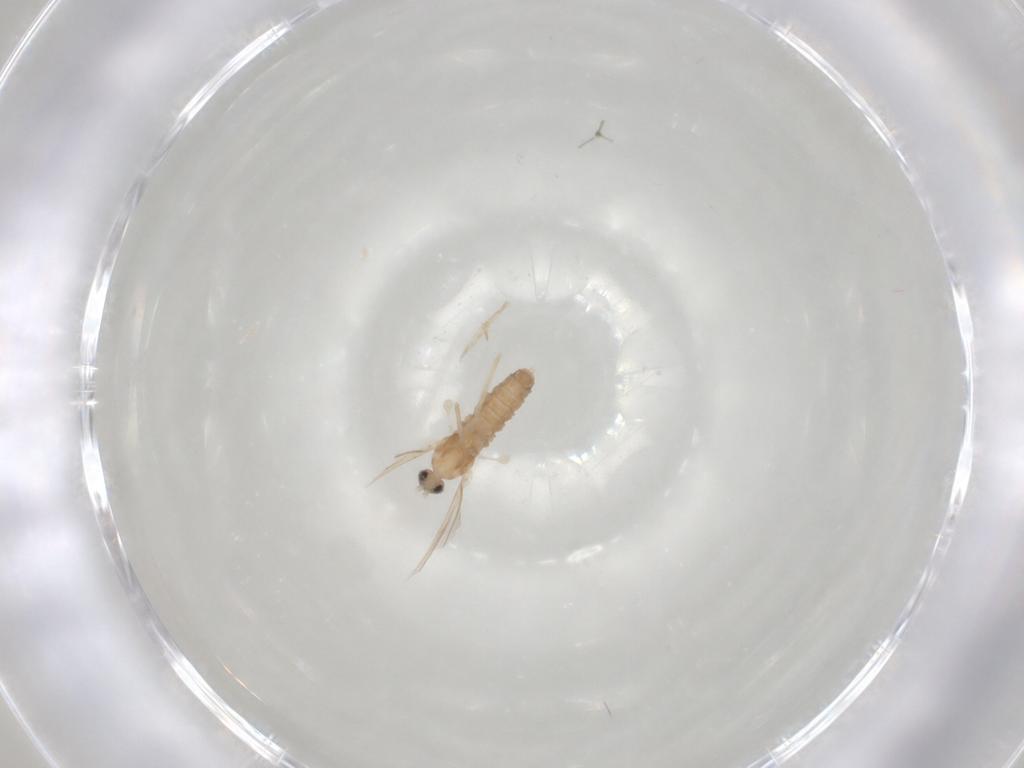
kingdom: Animalia
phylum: Arthropoda
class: Insecta
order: Diptera
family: Cecidomyiidae
